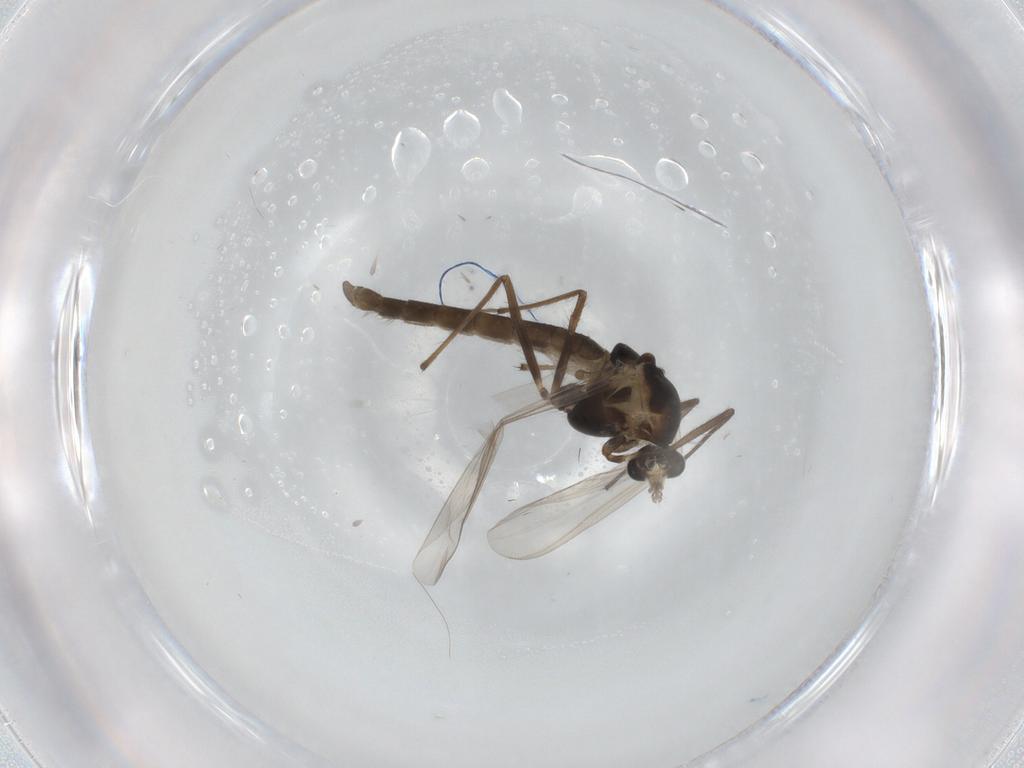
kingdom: Animalia
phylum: Arthropoda
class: Insecta
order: Diptera
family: Chironomidae
